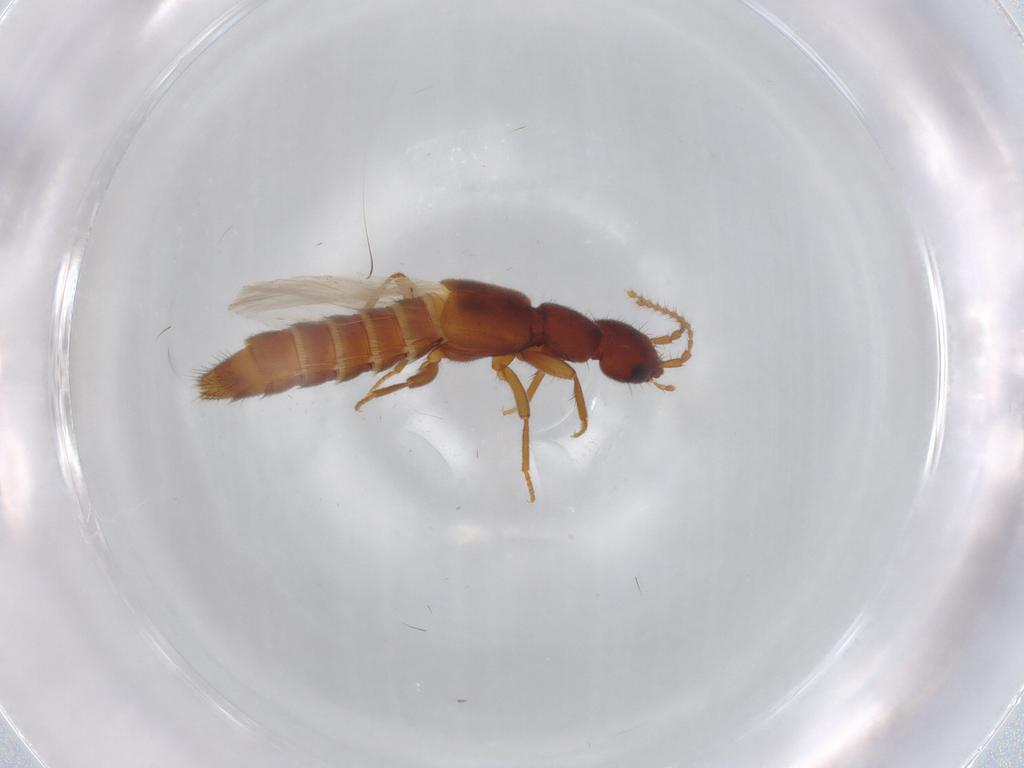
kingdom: Animalia
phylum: Arthropoda
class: Insecta
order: Coleoptera
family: Staphylinidae
